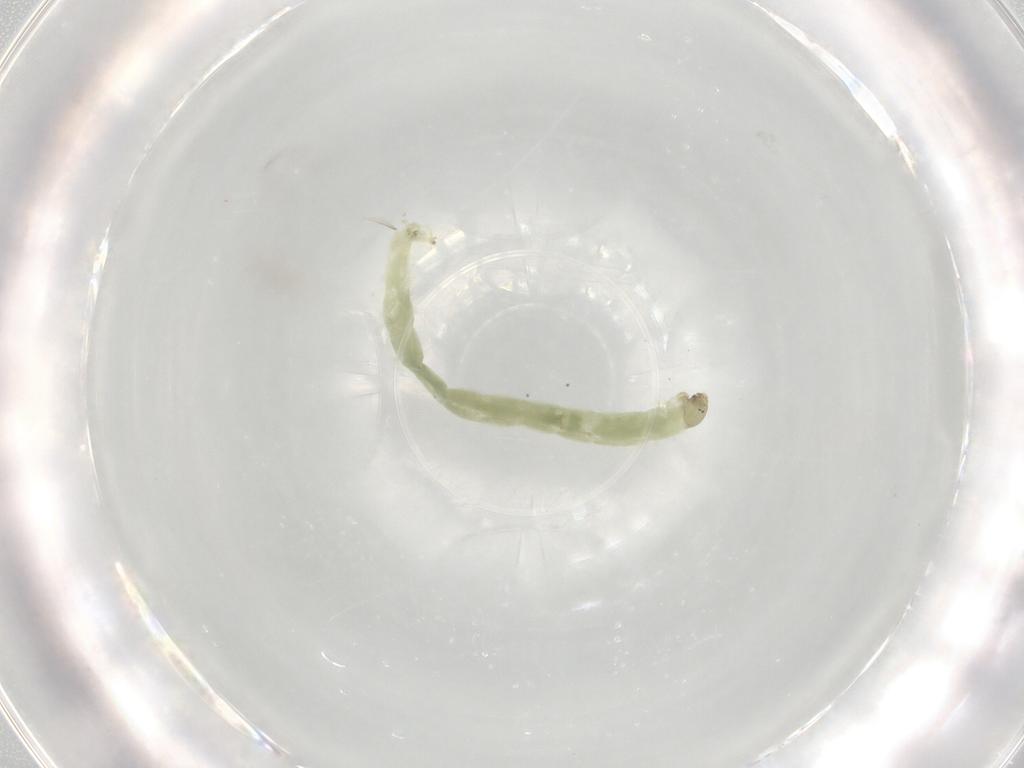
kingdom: Animalia
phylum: Arthropoda
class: Insecta
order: Diptera
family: Chironomidae
